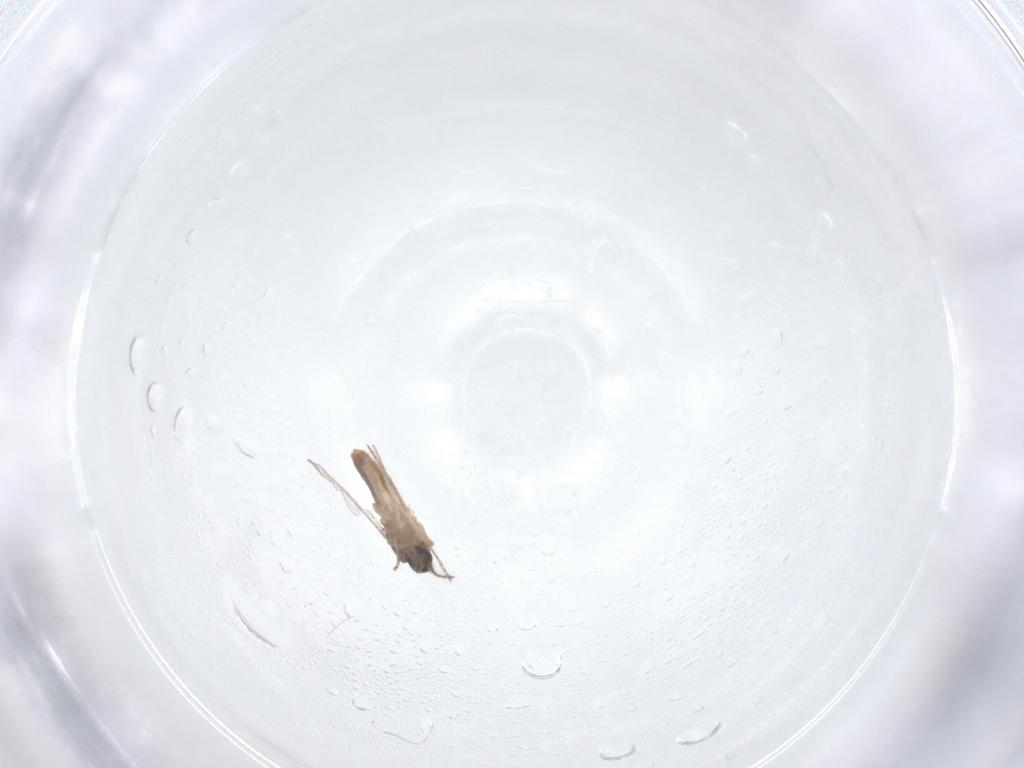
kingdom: Animalia
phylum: Arthropoda
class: Insecta
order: Diptera
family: Ceratopogonidae
